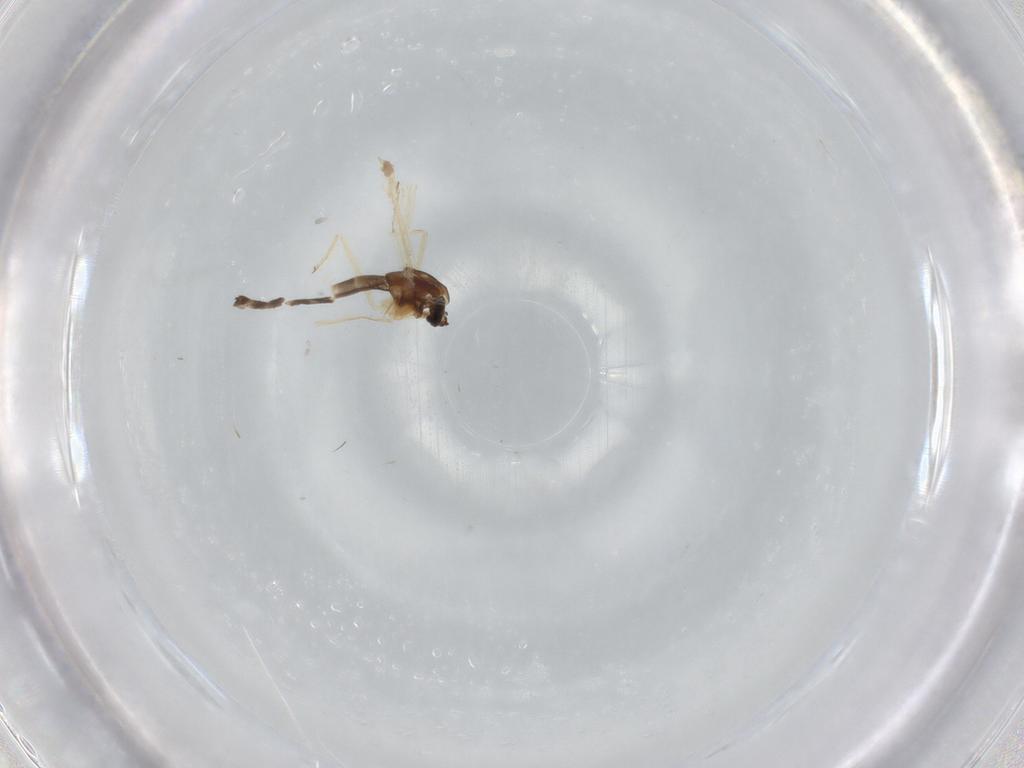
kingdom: Animalia
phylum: Arthropoda
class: Insecta
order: Diptera
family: Chironomidae
